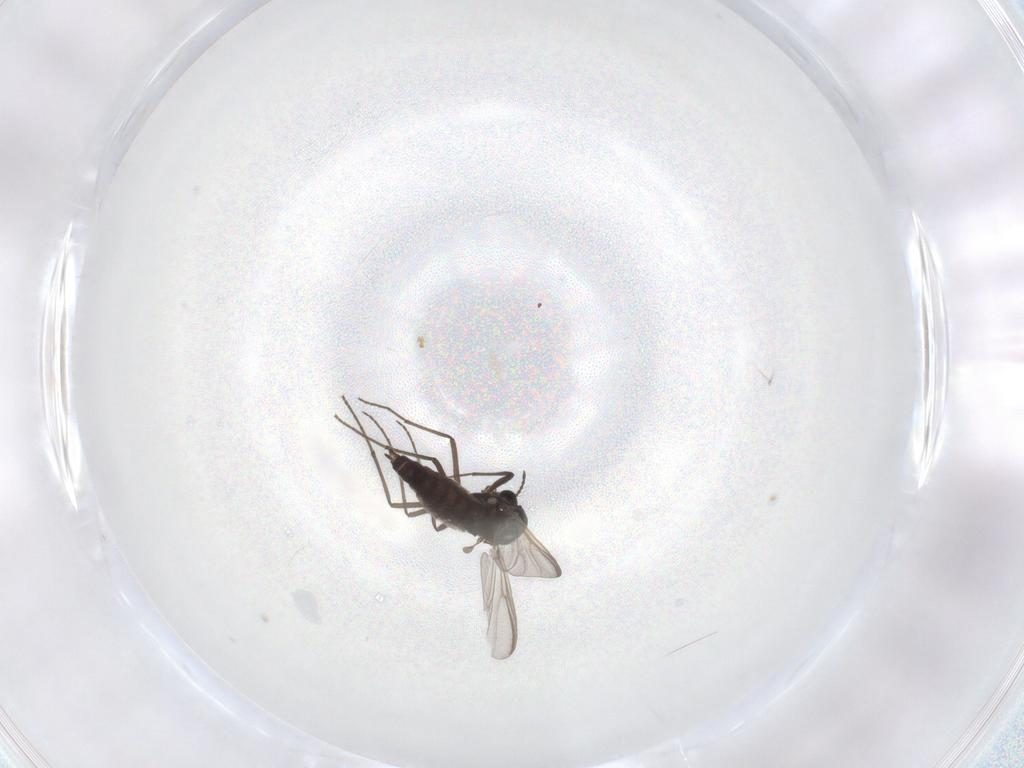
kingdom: Animalia
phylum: Arthropoda
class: Insecta
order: Diptera
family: Chironomidae
